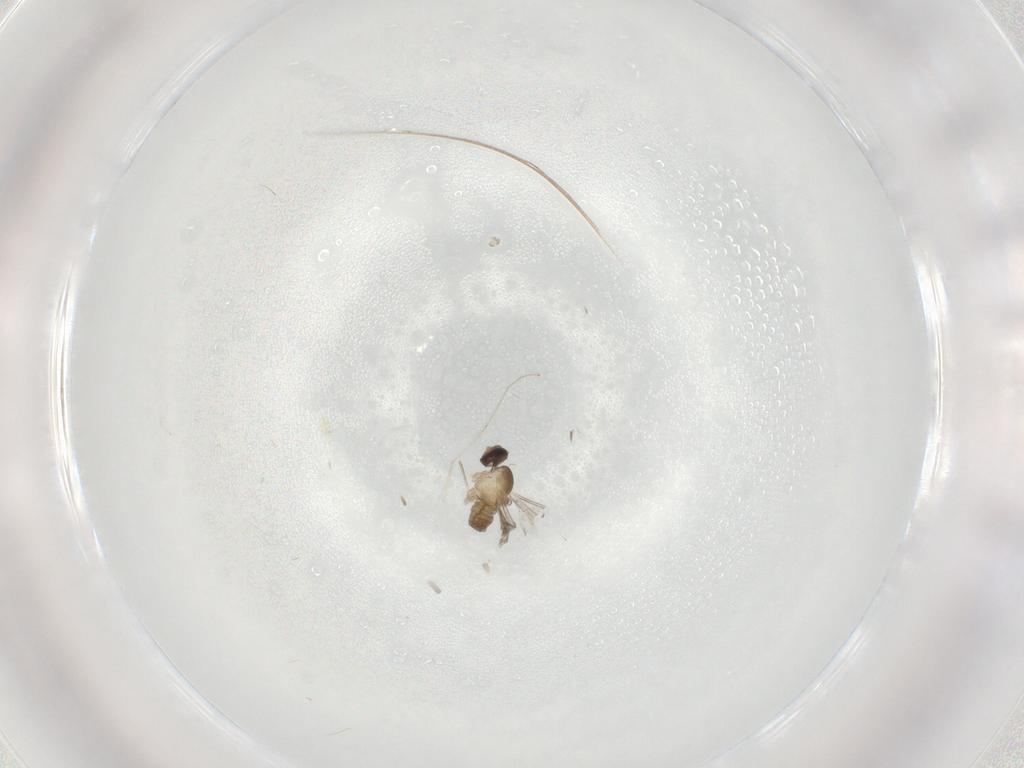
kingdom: Animalia
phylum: Arthropoda
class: Insecta
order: Diptera
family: Cecidomyiidae
